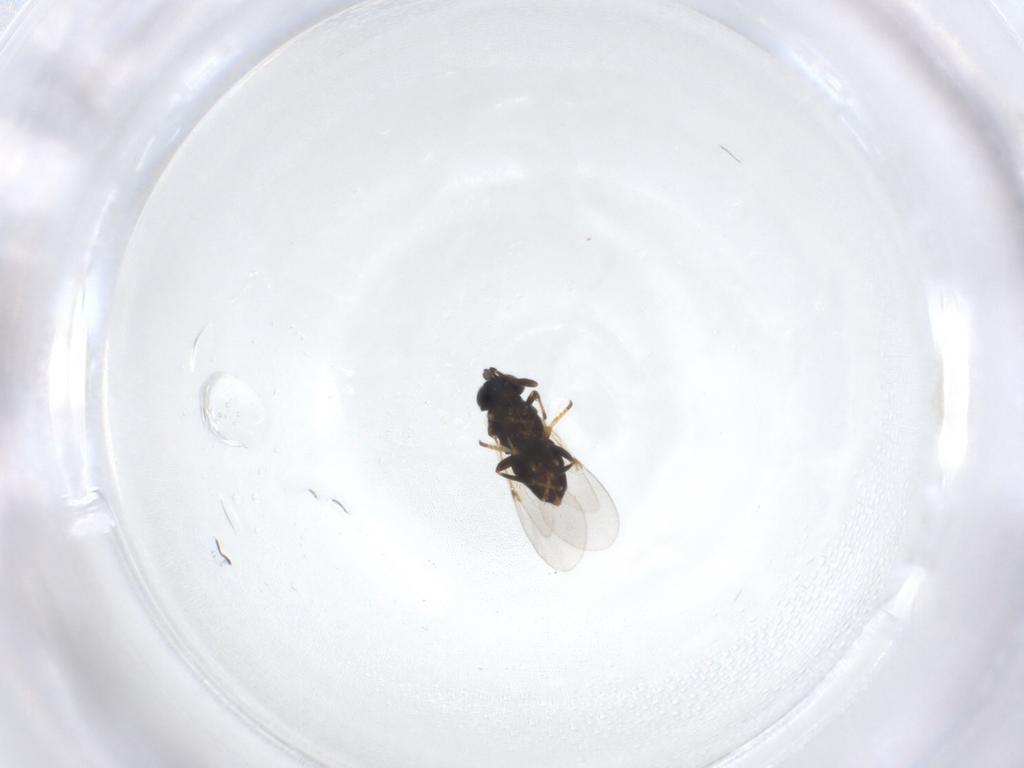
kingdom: Animalia
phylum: Arthropoda
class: Insecta
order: Hymenoptera
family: Encyrtidae
